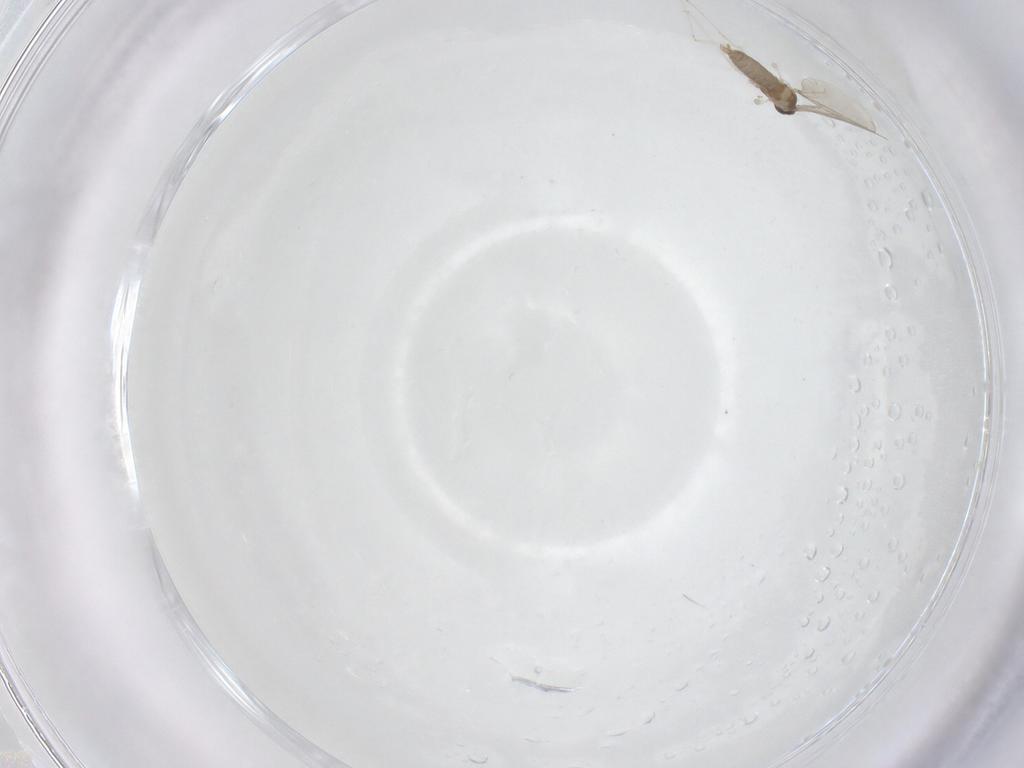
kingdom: Animalia
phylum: Arthropoda
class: Insecta
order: Diptera
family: Cecidomyiidae
